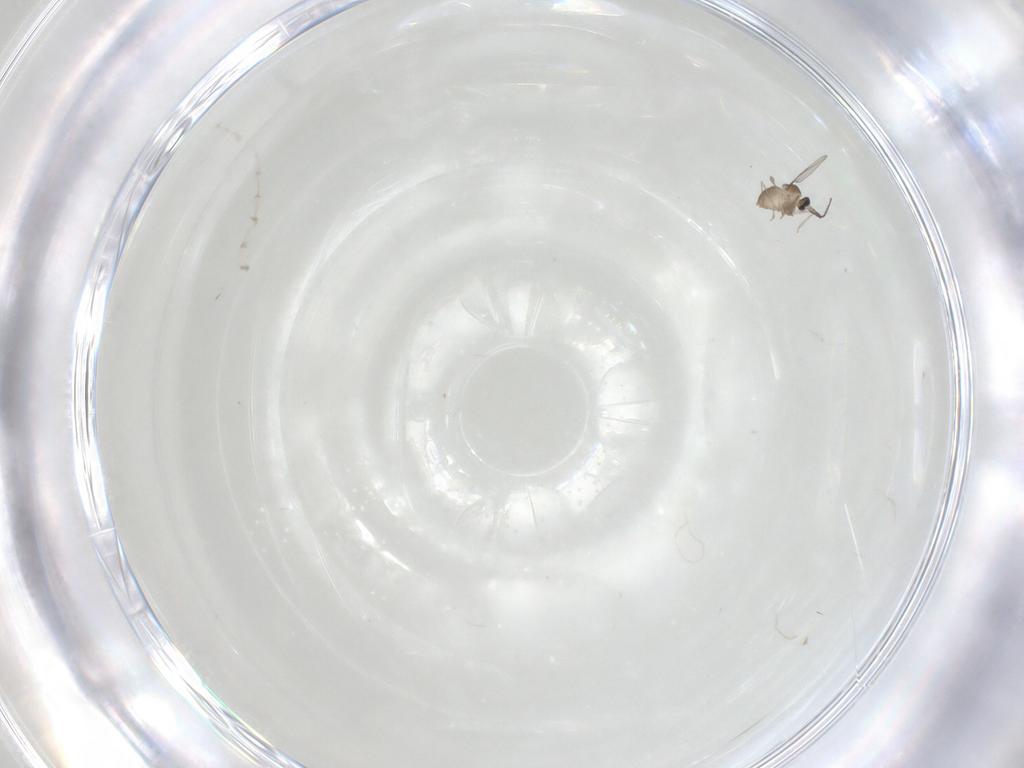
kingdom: Animalia
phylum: Arthropoda
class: Insecta
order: Diptera
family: Cecidomyiidae
